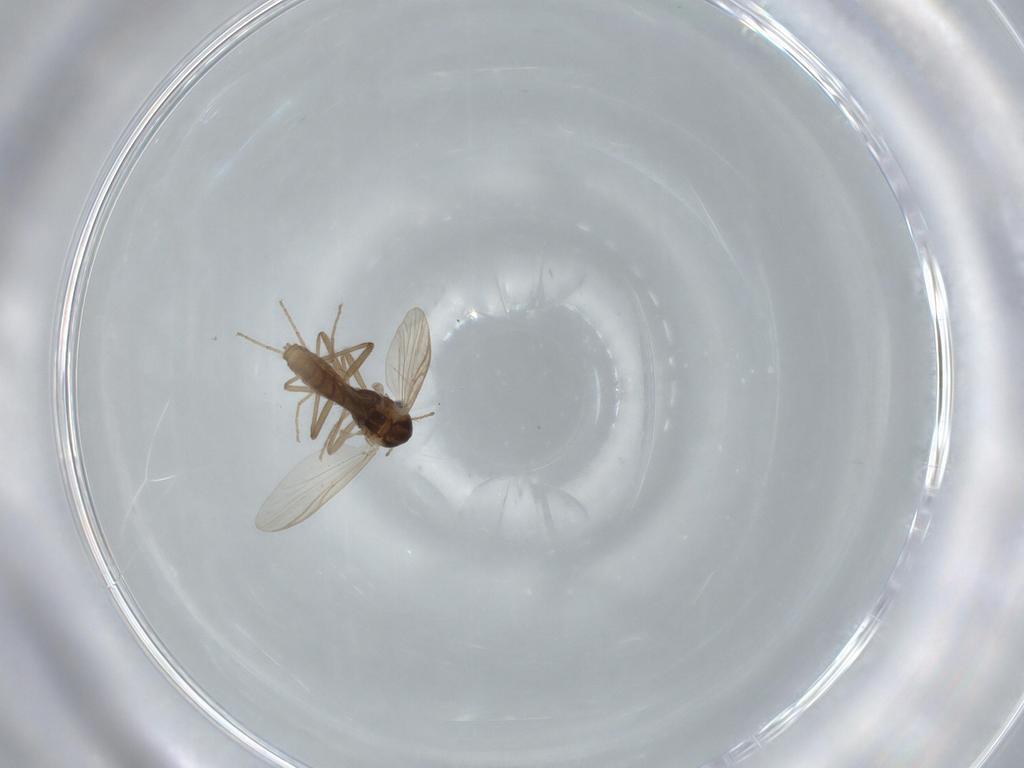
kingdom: Animalia
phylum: Arthropoda
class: Insecta
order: Diptera
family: Chironomidae
